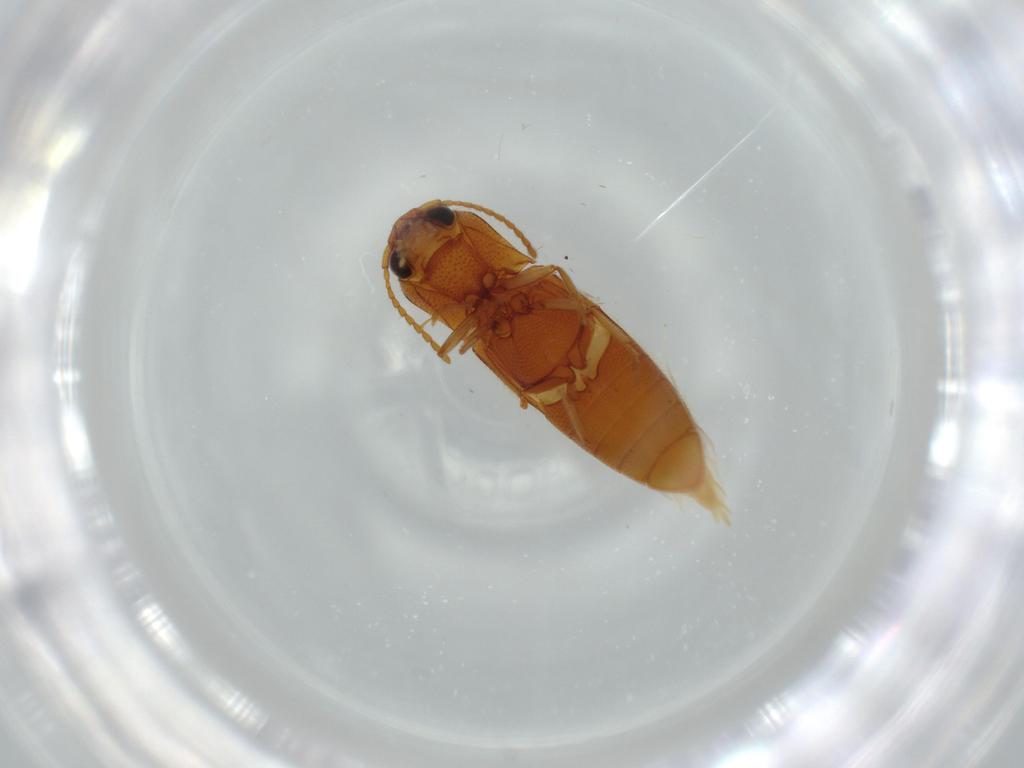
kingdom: Animalia
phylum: Arthropoda
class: Insecta
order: Coleoptera
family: Elateridae
